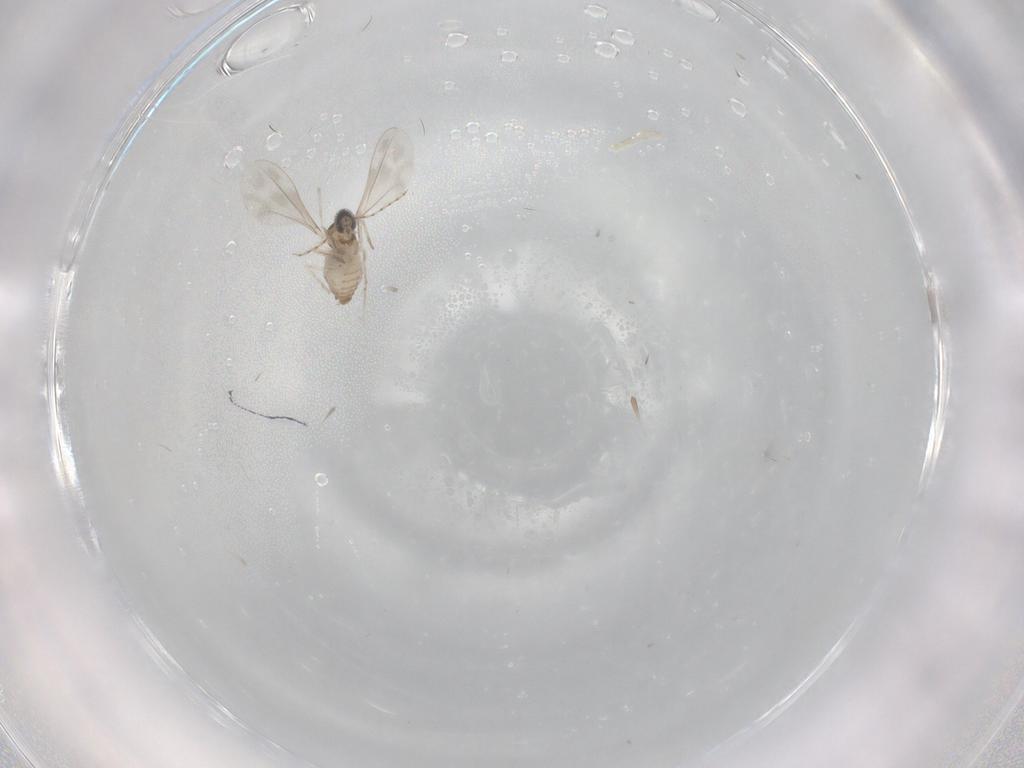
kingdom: Animalia
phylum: Arthropoda
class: Insecta
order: Diptera
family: Cecidomyiidae
